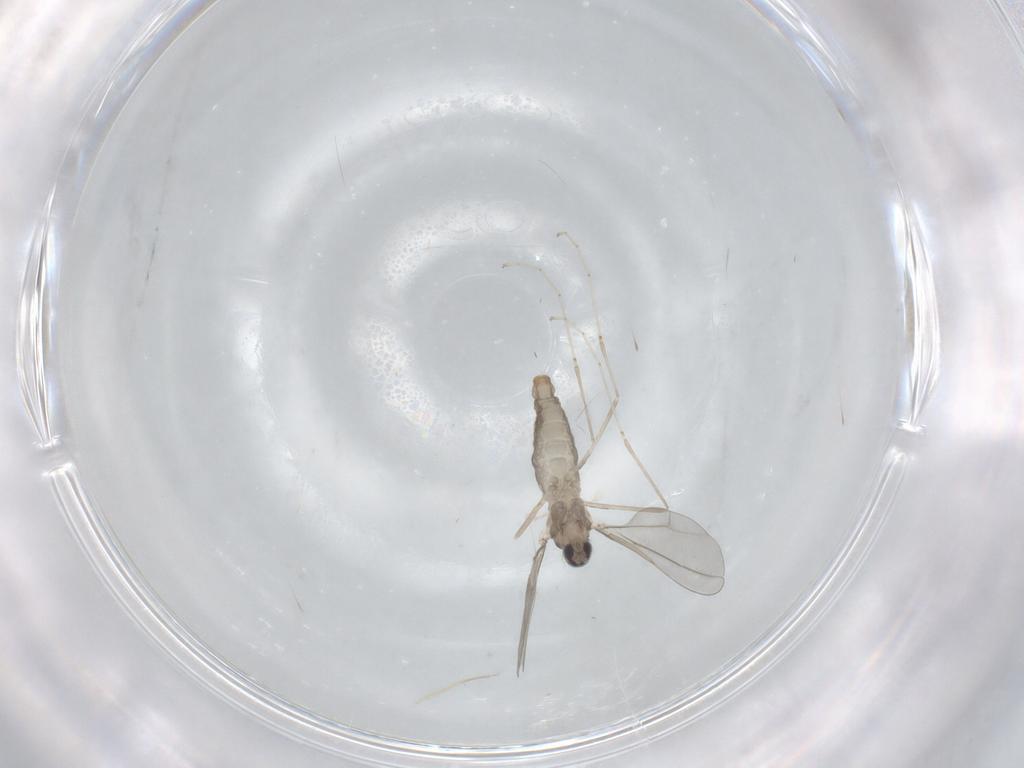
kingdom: Animalia
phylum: Arthropoda
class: Insecta
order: Diptera
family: Cecidomyiidae
